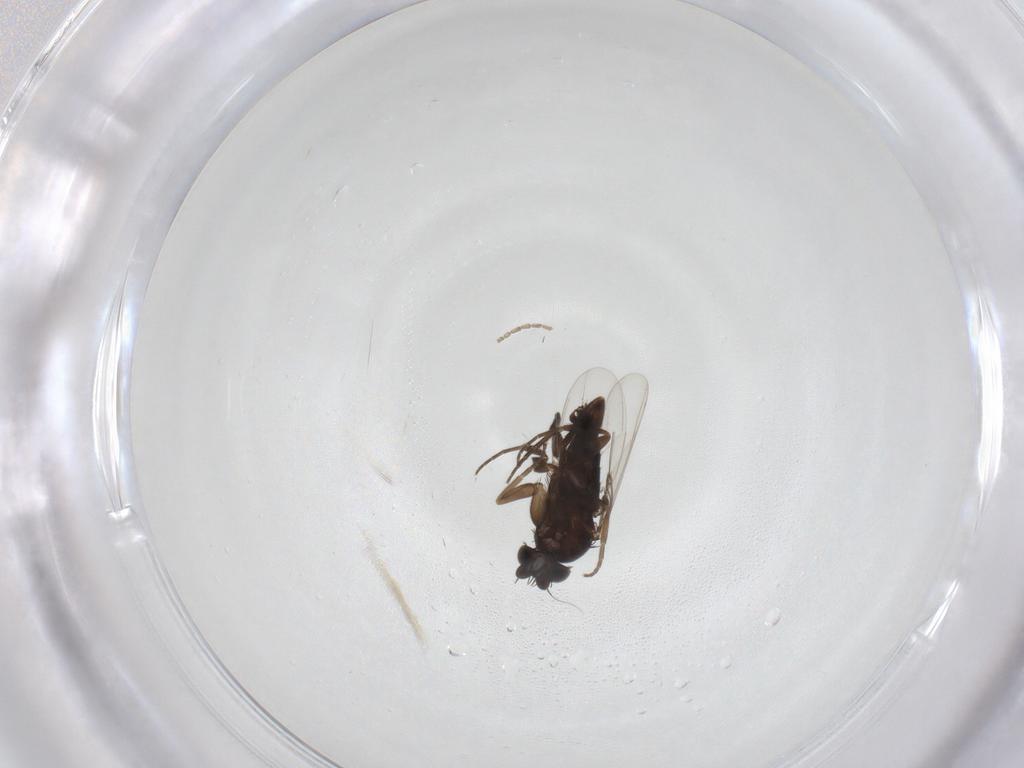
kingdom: Animalia
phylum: Arthropoda
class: Insecta
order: Diptera
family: Cecidomyiidae
